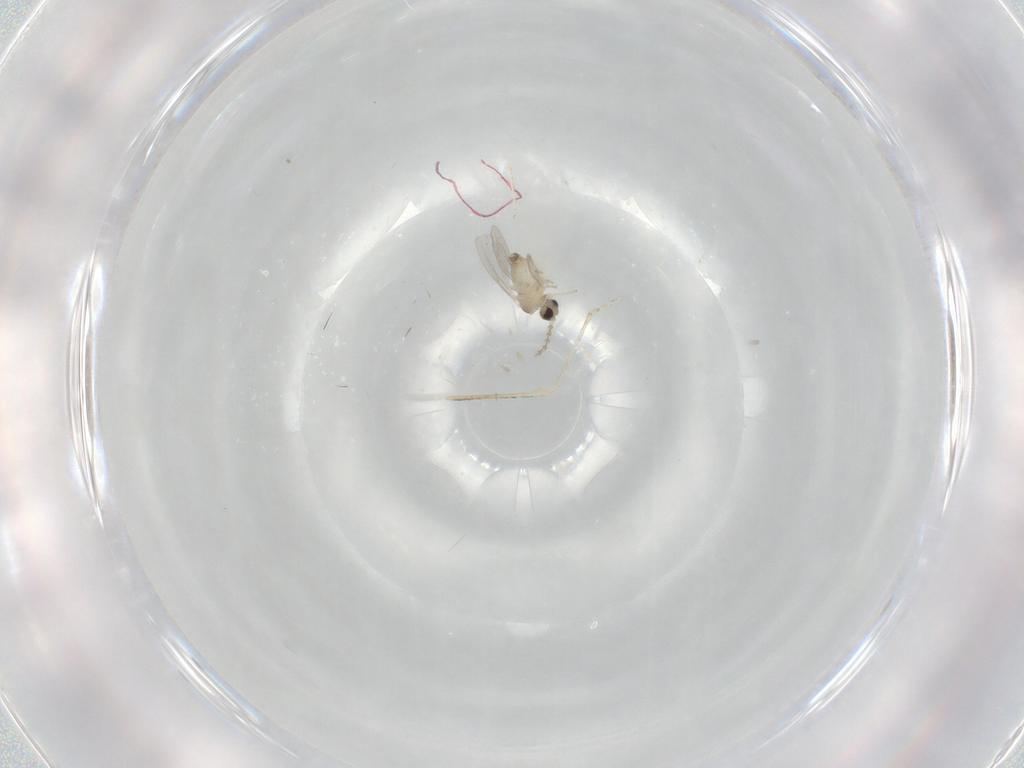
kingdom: Animalia
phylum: Arthropoda
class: Insecta
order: Diptera
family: Cecidomyiidae
